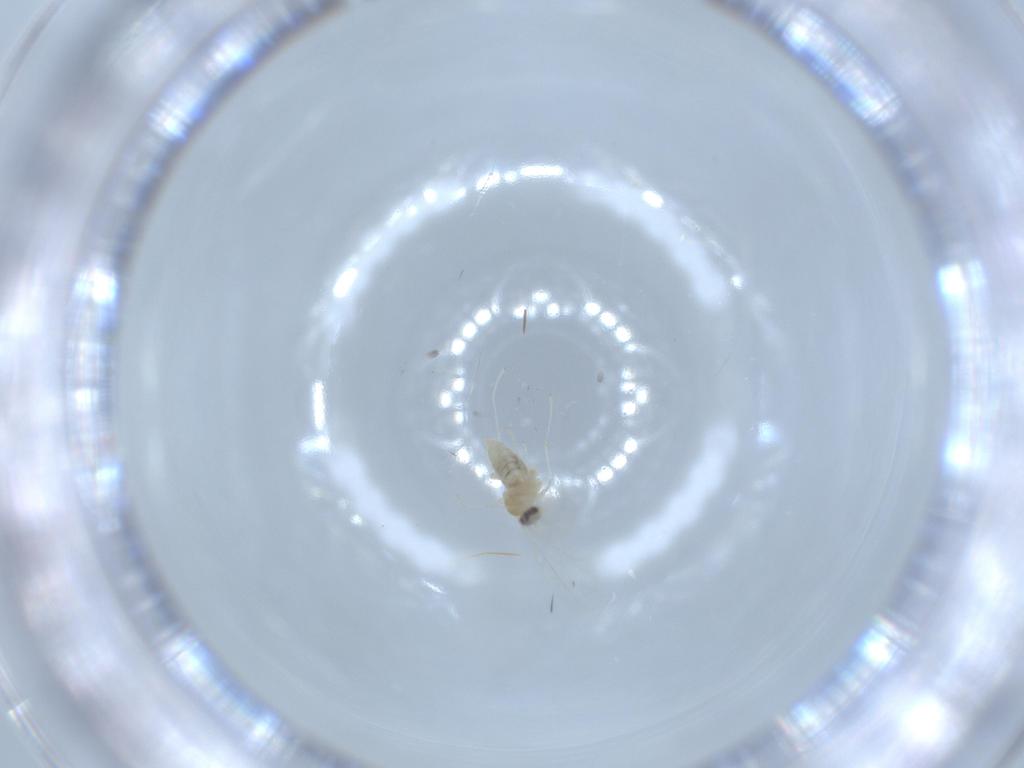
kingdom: Animalia
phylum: Arthropoda
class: Insecta
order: Diptera
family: Cecidomyiidae
